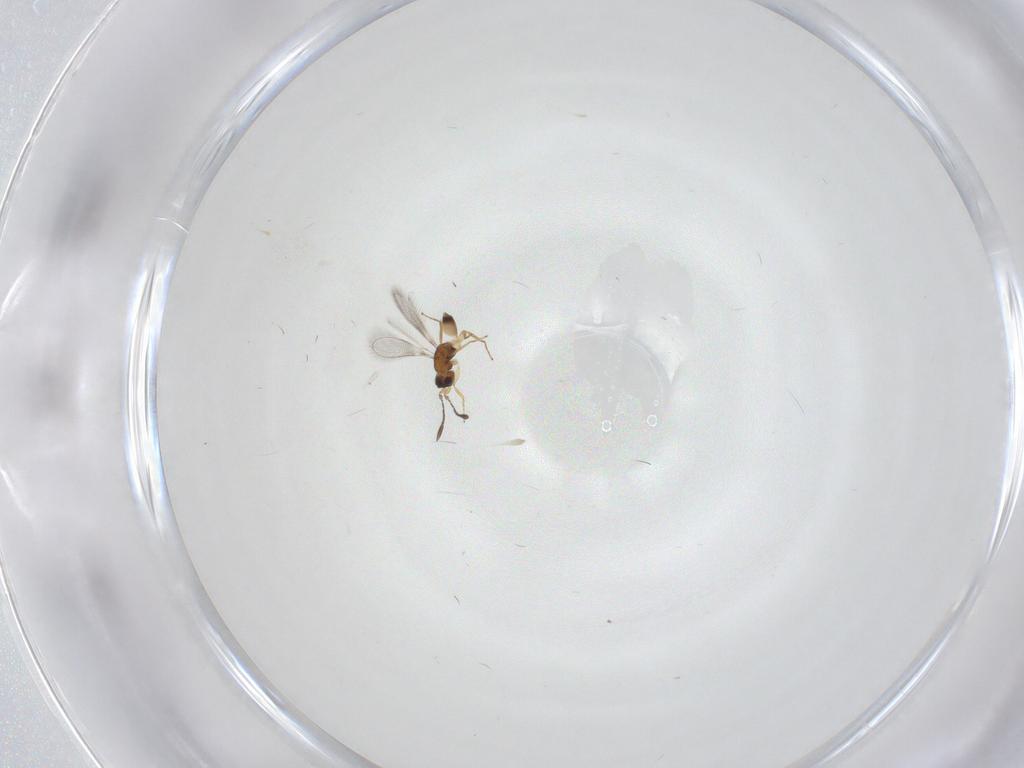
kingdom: Animalia
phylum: Arthropoda
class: Insecta
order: Hymenoptera
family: Mymaridae
